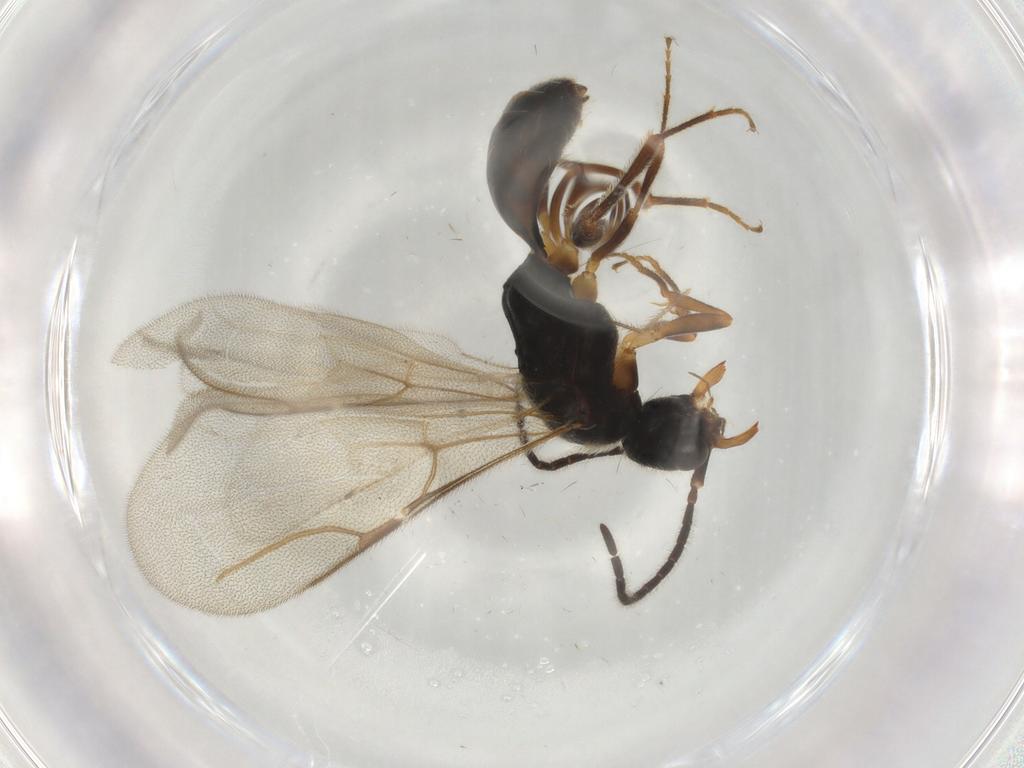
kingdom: Animalia
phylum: Arthropoda
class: Insecta
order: Hymenoptera
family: Bethylidae
